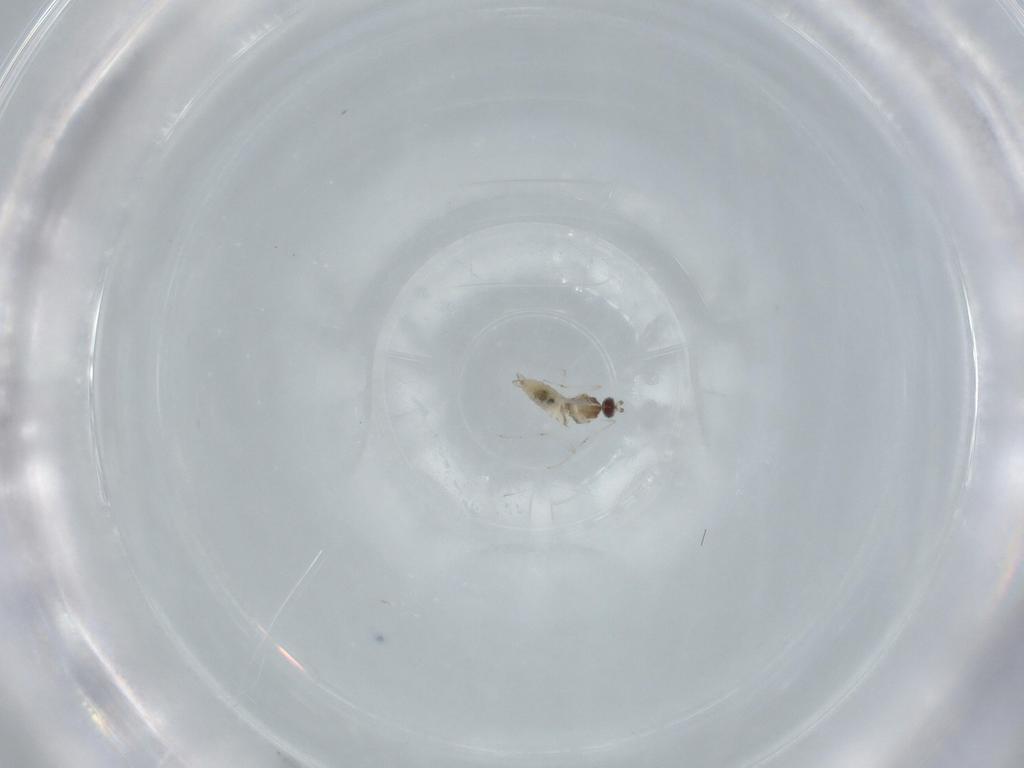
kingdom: Animalia
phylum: Arthropoda
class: Insecta
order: Diptera
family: Cecidomyiidae
